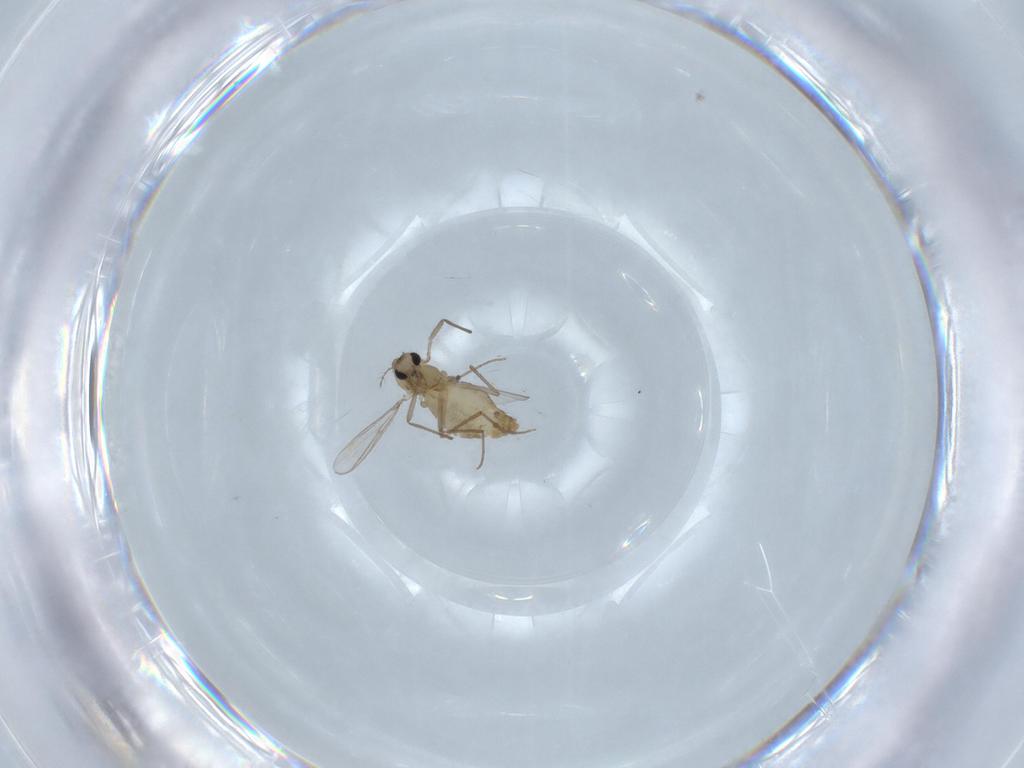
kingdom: Animalia
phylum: Arthropoda
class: Insecta
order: Diptera
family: Chironomidae
